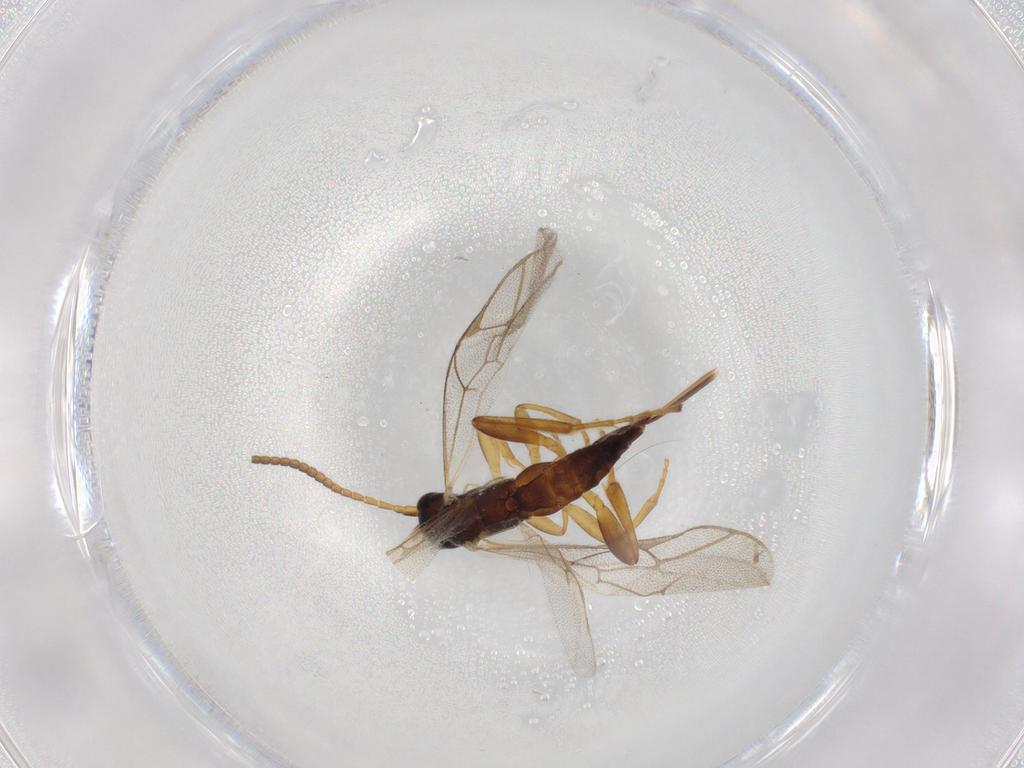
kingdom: Animalia
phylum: Arthropoda
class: Insecta
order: Hymenoptera
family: Ichneumonidae
